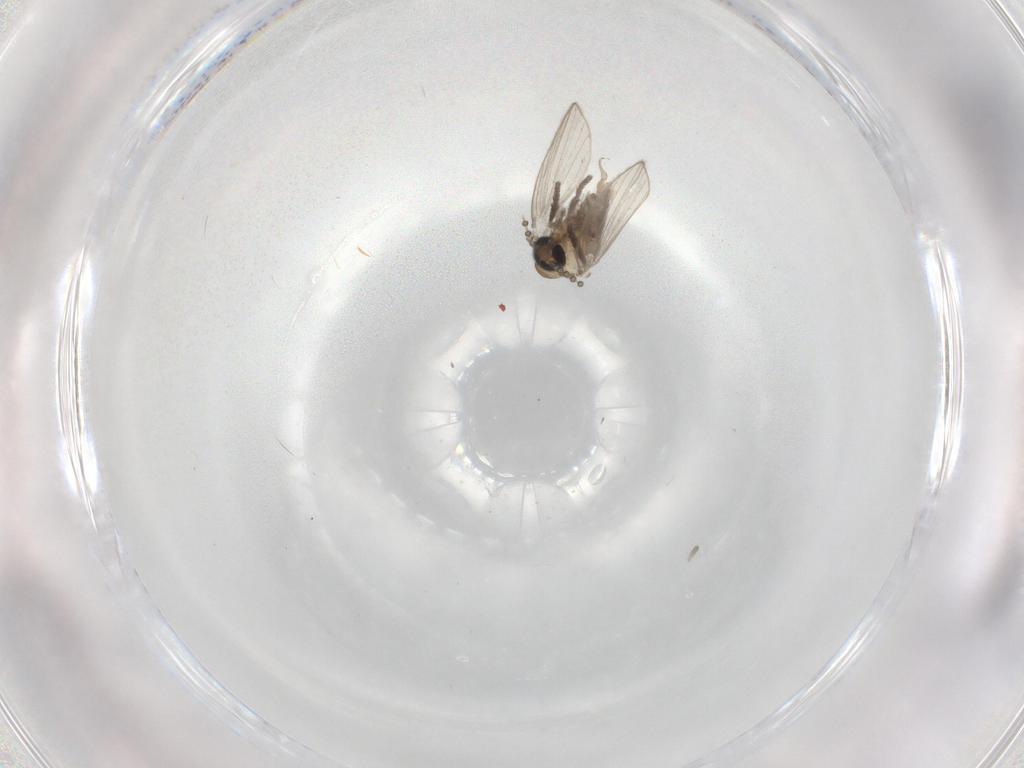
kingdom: Animalia
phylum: Arthropoda
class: Insecta
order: Diptera
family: Psychodidae
